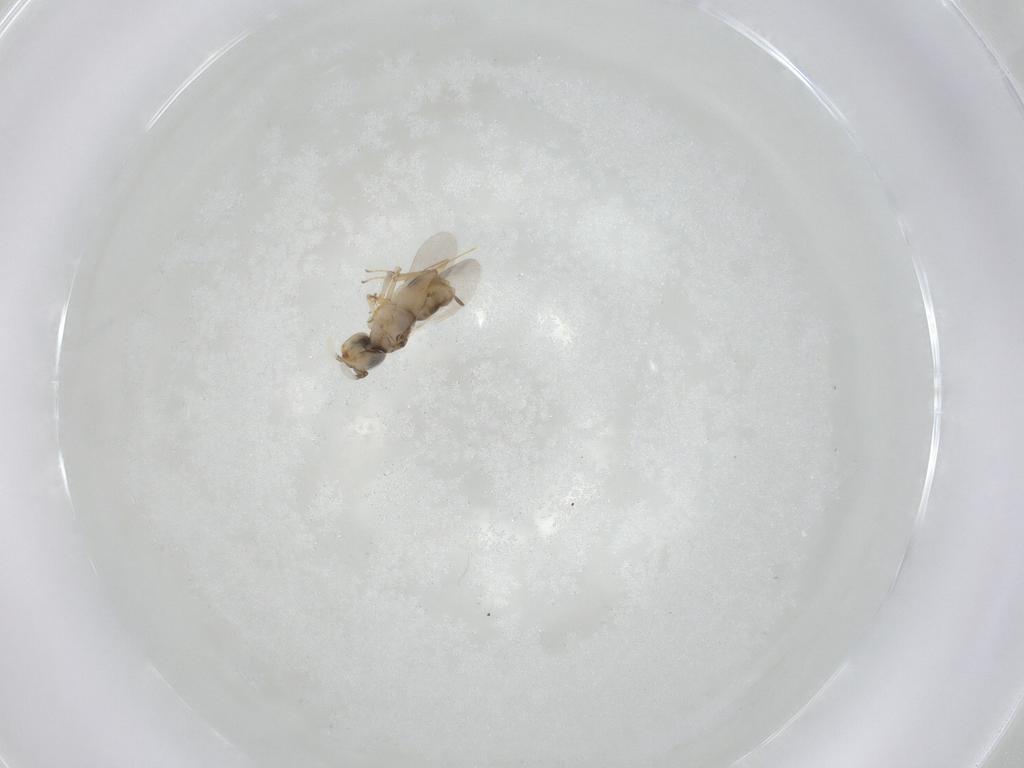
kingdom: Animalia
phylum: Arthropoda
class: Insecta
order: Hymenoptera
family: Encyrtidae
